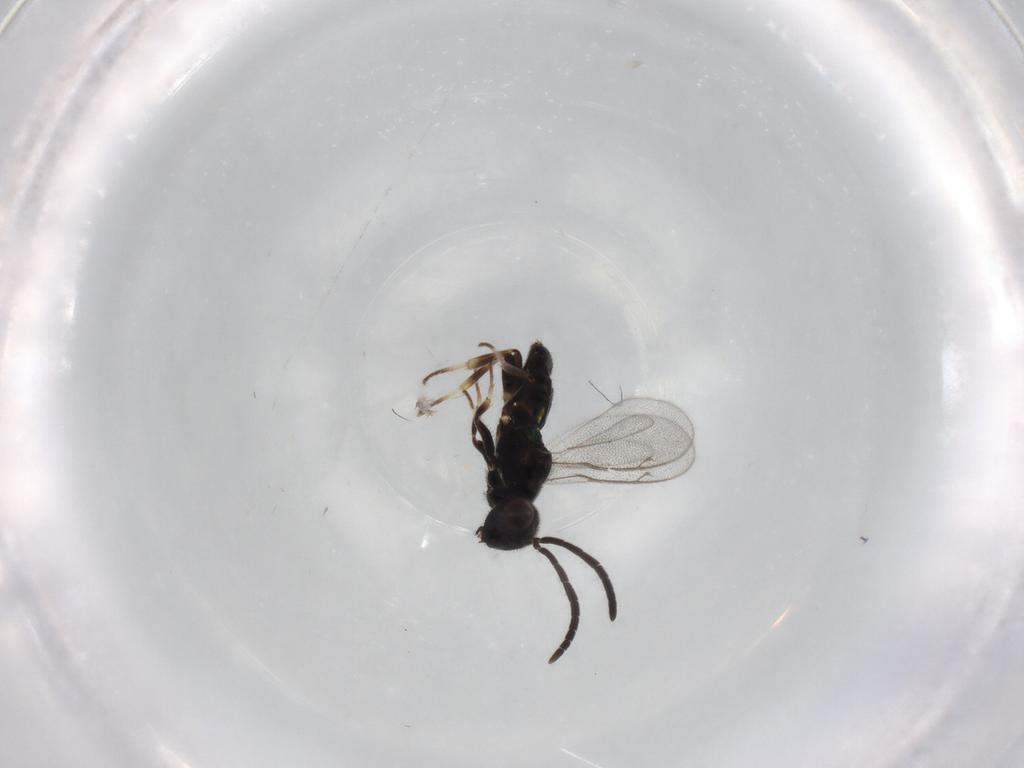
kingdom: Animalia
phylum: Arthropoda
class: Insecta
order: Hymenoptera
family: Eupelmidae
